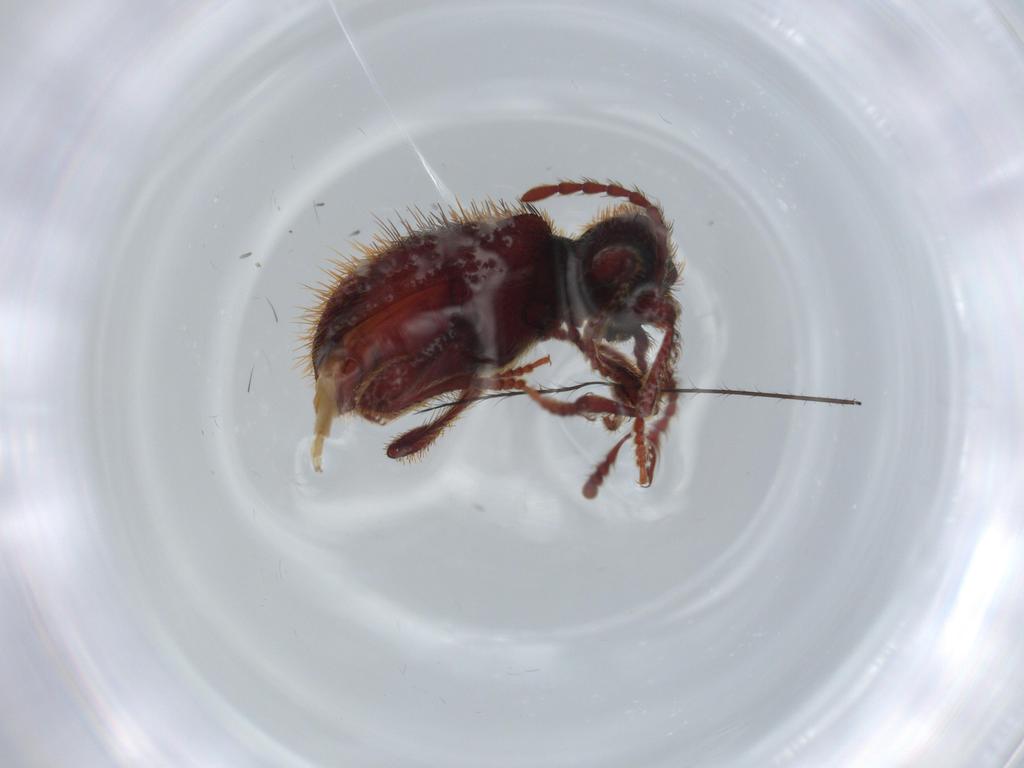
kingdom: Animalia
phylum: Arthropoda
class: Insecta
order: Coleoptera
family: Ptinidae
